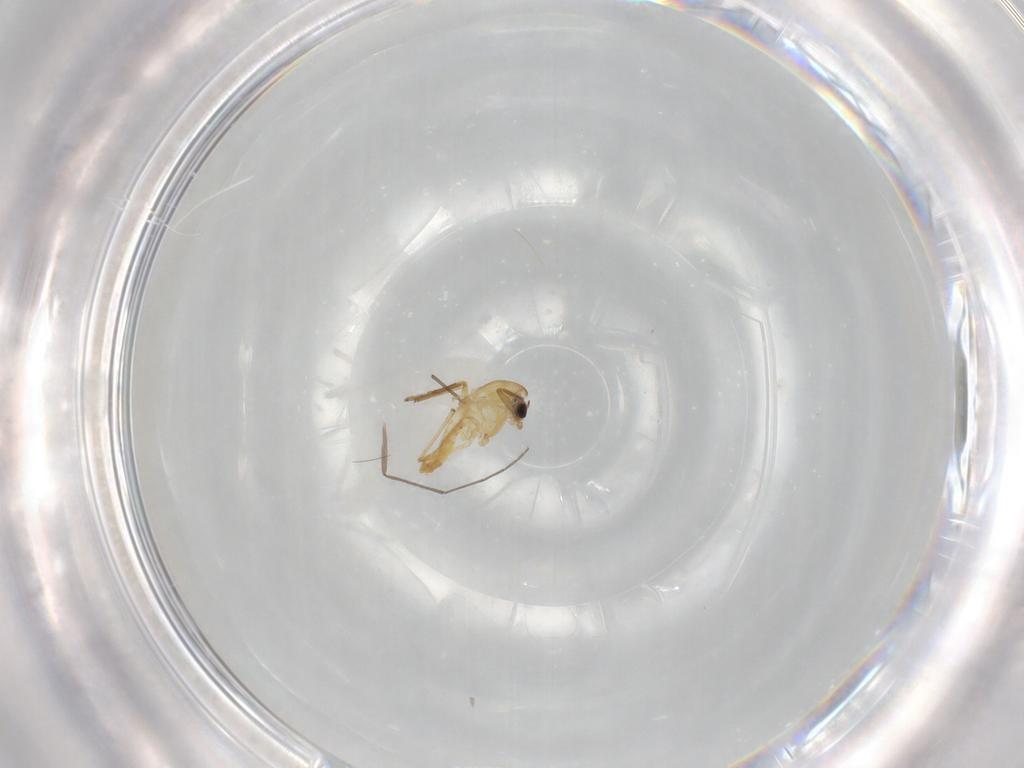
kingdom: Animalia
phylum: Arthropoda
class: Insecta
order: Diptera
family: Chironomidae
